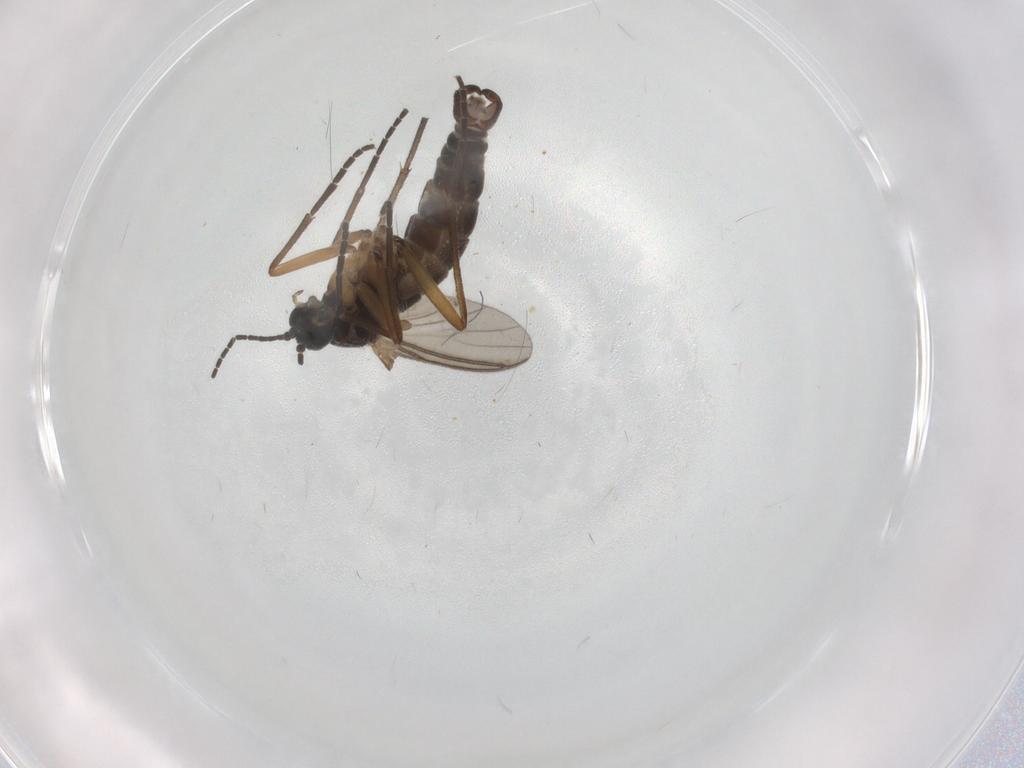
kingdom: Animalia
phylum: Arthropoda
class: Insecta
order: Diptera
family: Sciaridae
